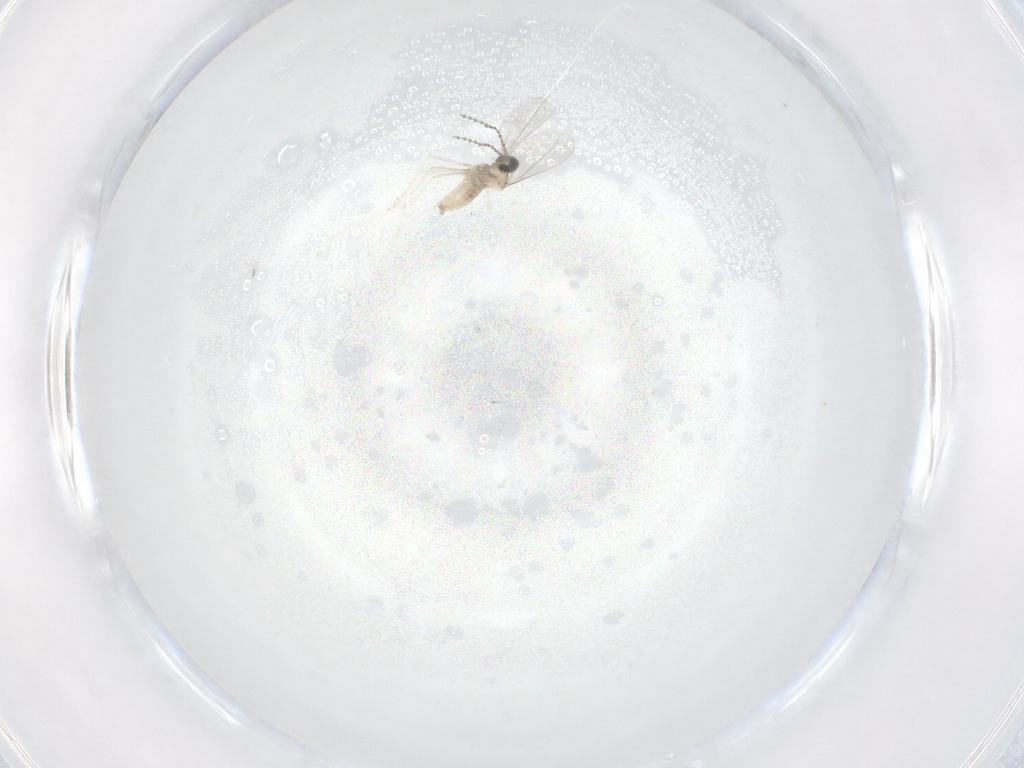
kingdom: Animalia
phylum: Arthropoda
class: Insecta
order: Diptera
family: Cecidomyiidae
